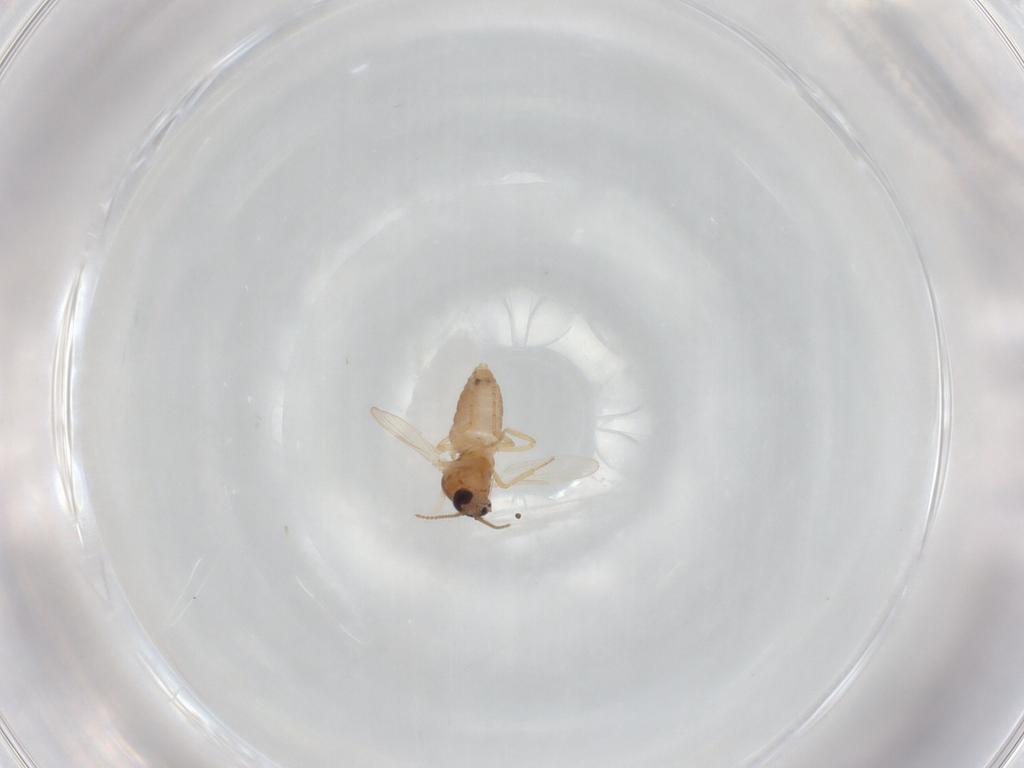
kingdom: Animalia
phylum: Arthropoda
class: Insecta
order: Diptera
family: Ceratopogonidae
